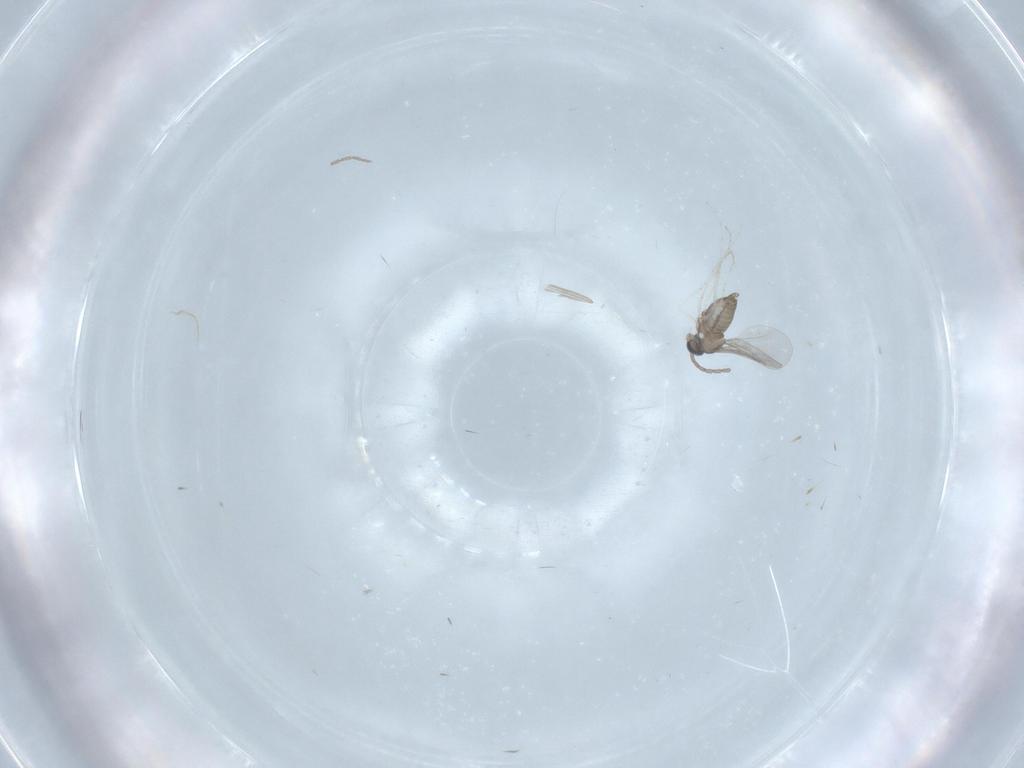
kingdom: Animalia
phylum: Arthropoda
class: Insecta
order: Diptera
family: Cecidomyiidae
